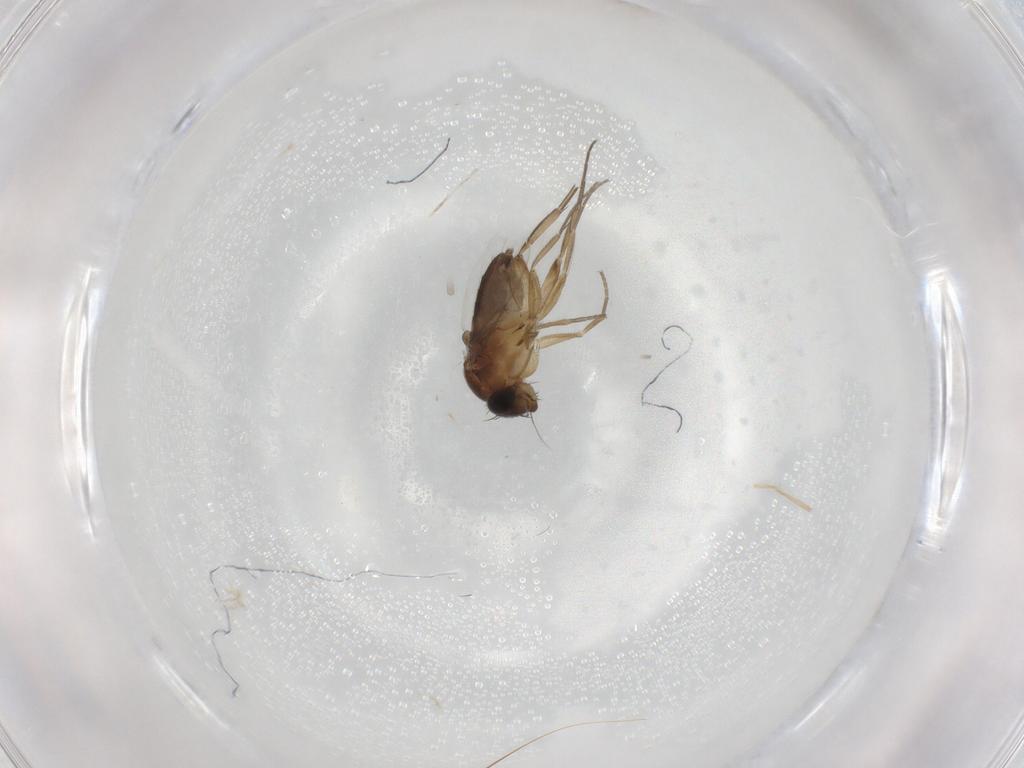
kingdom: Animalia
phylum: Arthropoda
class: Insecta
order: Diptera
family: Phoridae
